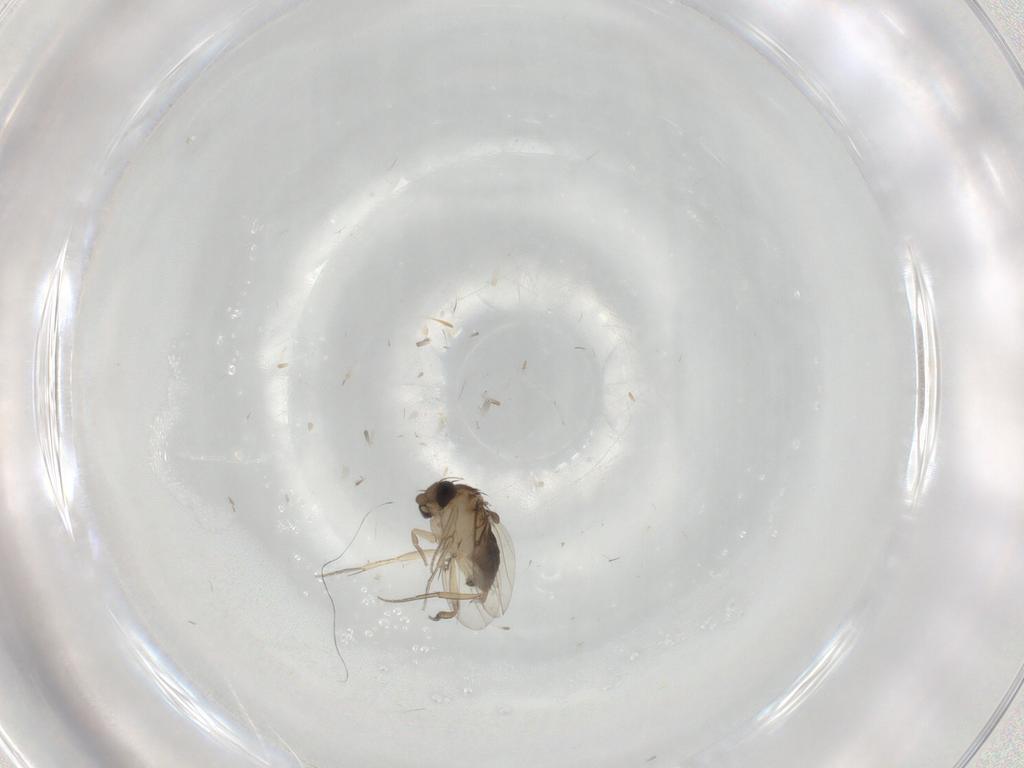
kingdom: Animalia
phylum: Arthropoda
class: Insecta
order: Diptera
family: Cecidomyiidae
